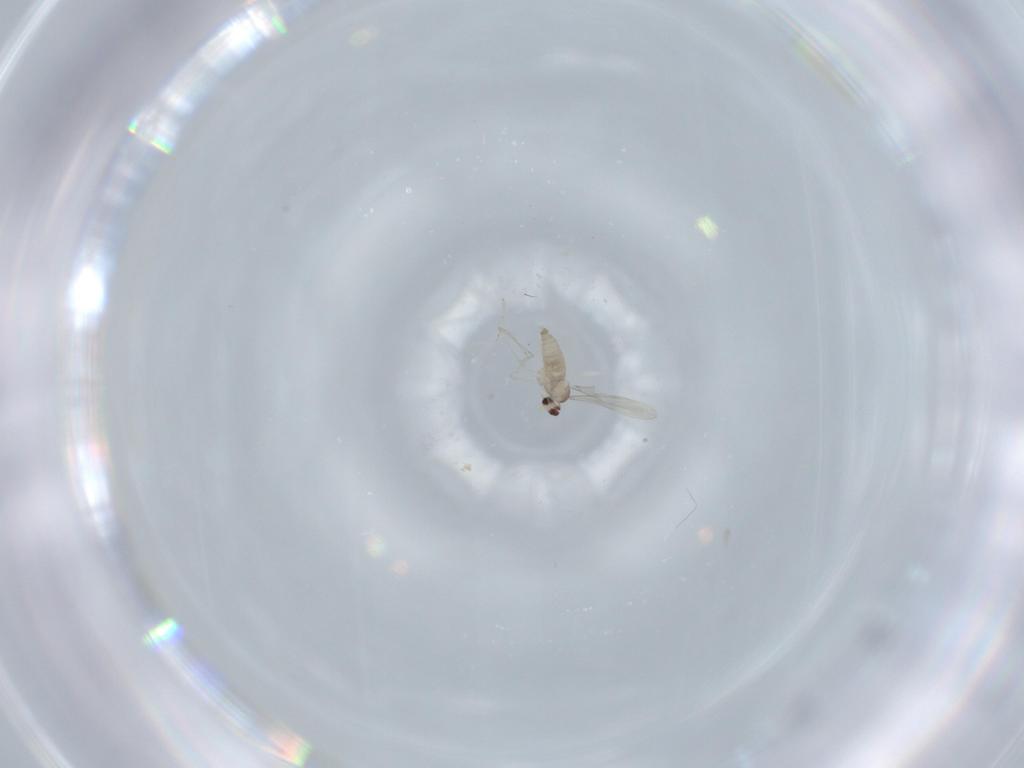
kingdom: Animalia
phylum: Arthropoda
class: Insecta
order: Diptera
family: Cecidomyiidae
